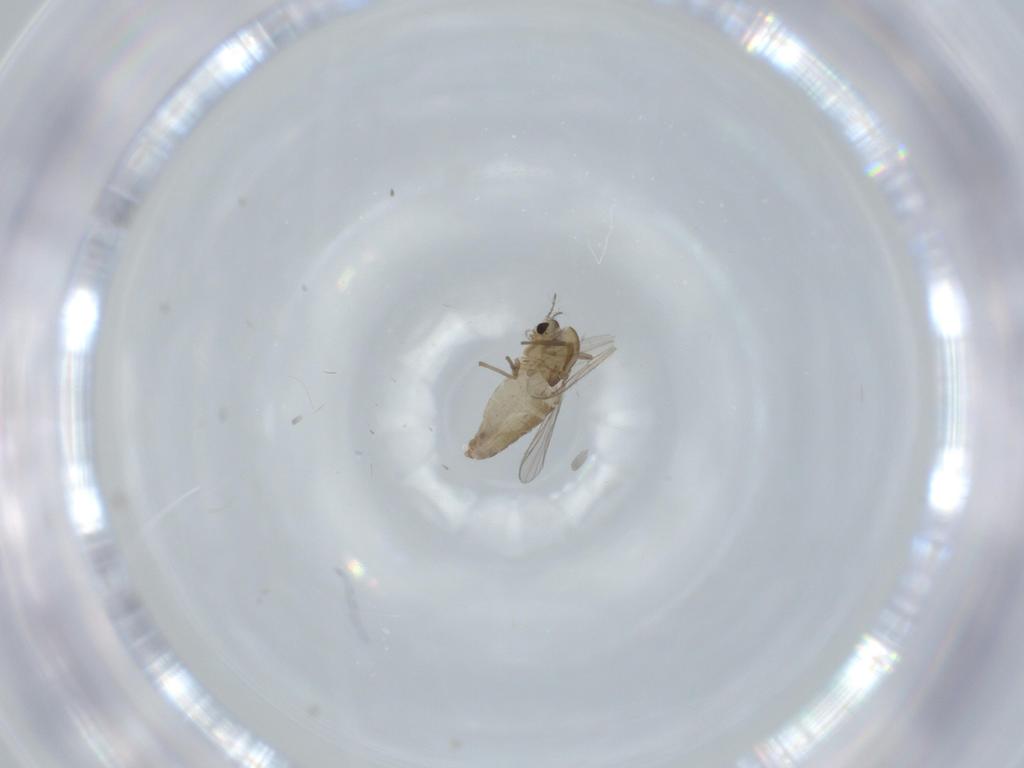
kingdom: Animalia
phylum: Arthropoda
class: Insecta
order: Diptera
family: Chironomidae
